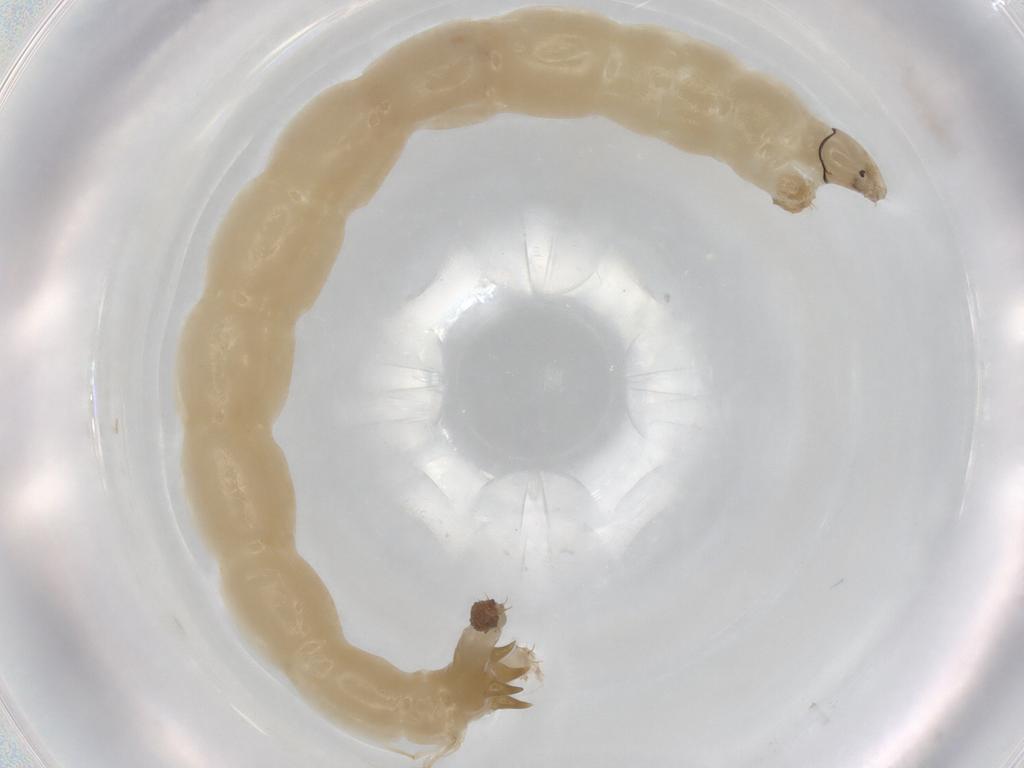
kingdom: Animalia
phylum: Arthropoda
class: Insecta
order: Diptera
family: Chironomidae
